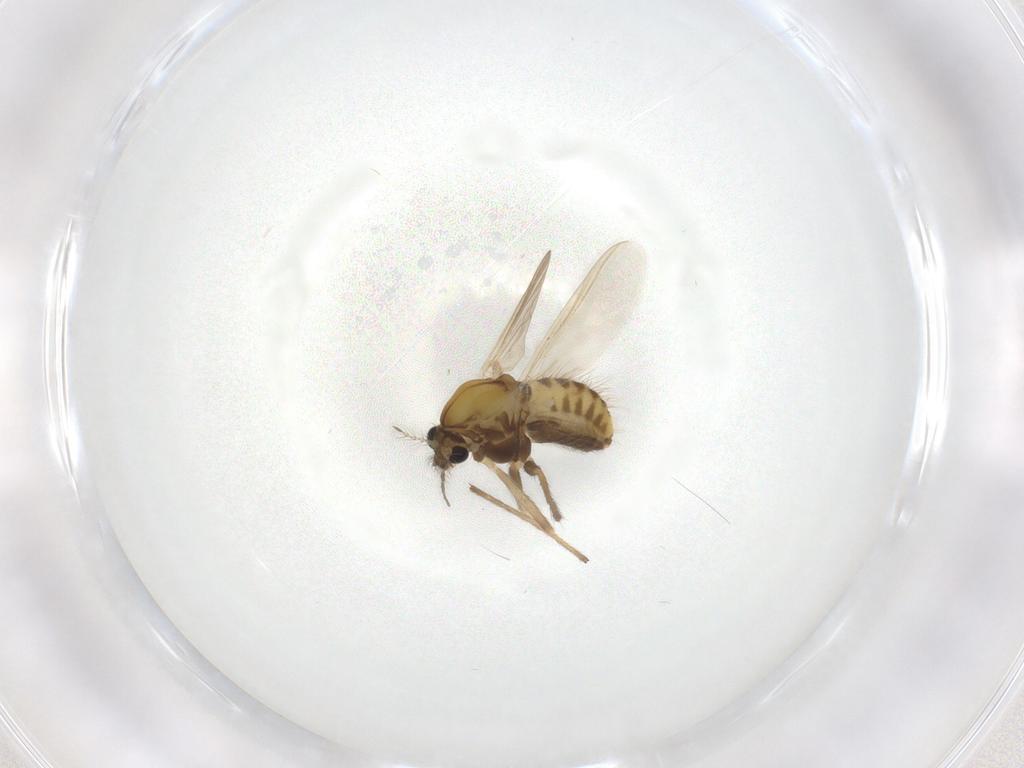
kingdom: Animalia
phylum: Arthropoda
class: Insecta
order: Diptera
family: Chironomidae
